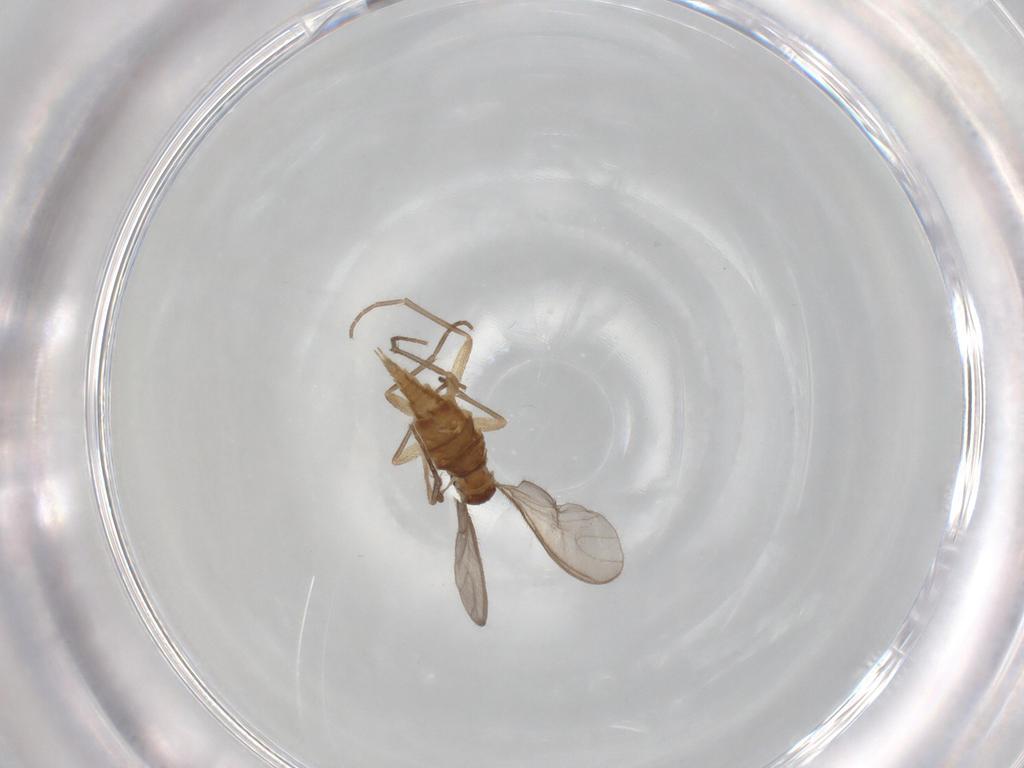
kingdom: Animalia
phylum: Arthropoda
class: Insecta
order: Diptera
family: Sciaridae
